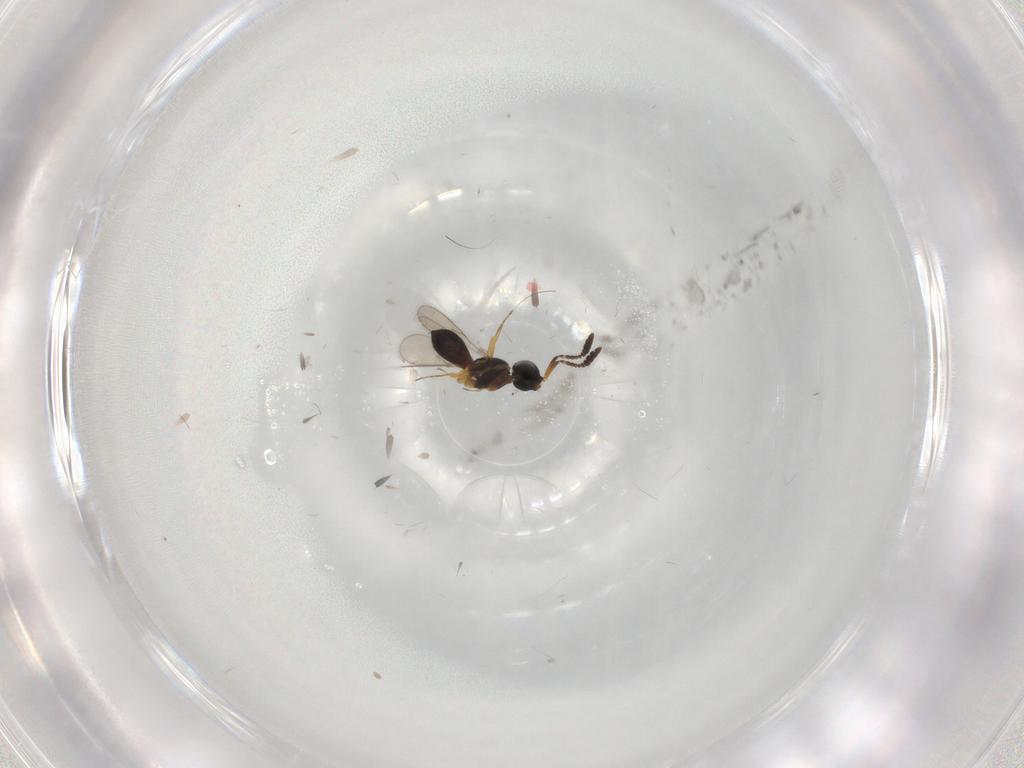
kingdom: Animalia
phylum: Arthropoda
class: Insecta
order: Hymenoptera
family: Scelionidae
